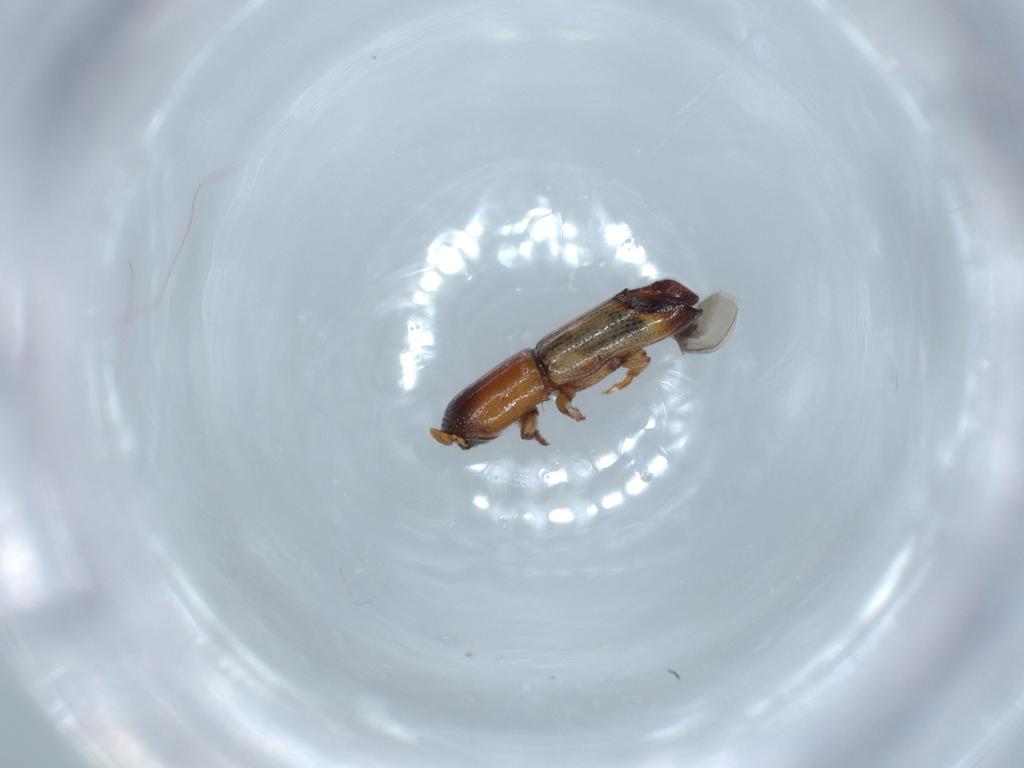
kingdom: Animalia
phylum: Arthropoda
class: Insecta
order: Coleoptera
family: Curculionidae
